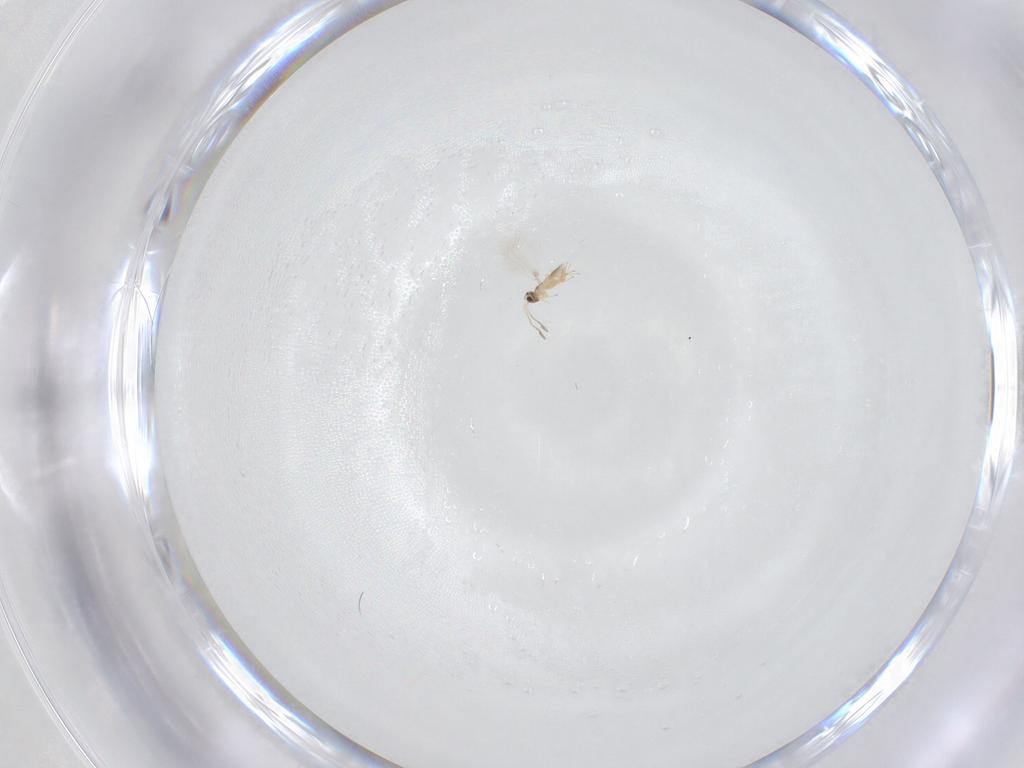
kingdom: Animalia
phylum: Arthropoda
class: Insecta
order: Hymenoptera
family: Mymaridae
